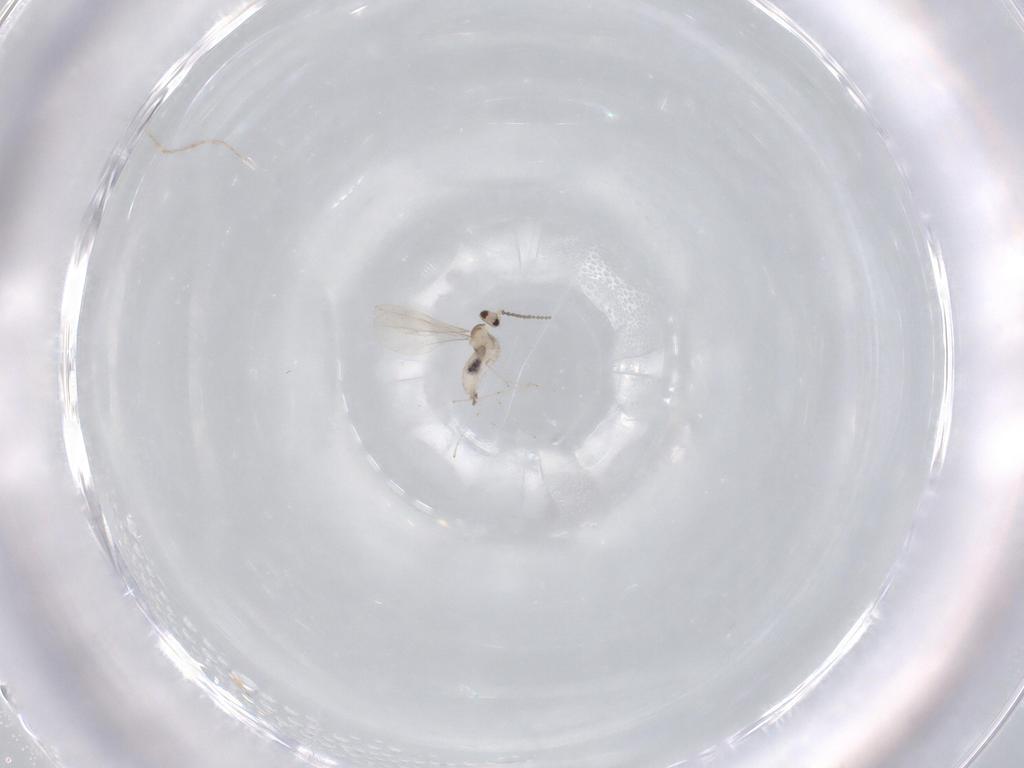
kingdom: Animalia
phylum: Arthropoda
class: Insecta
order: Diptera
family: Cecidomyiidae
